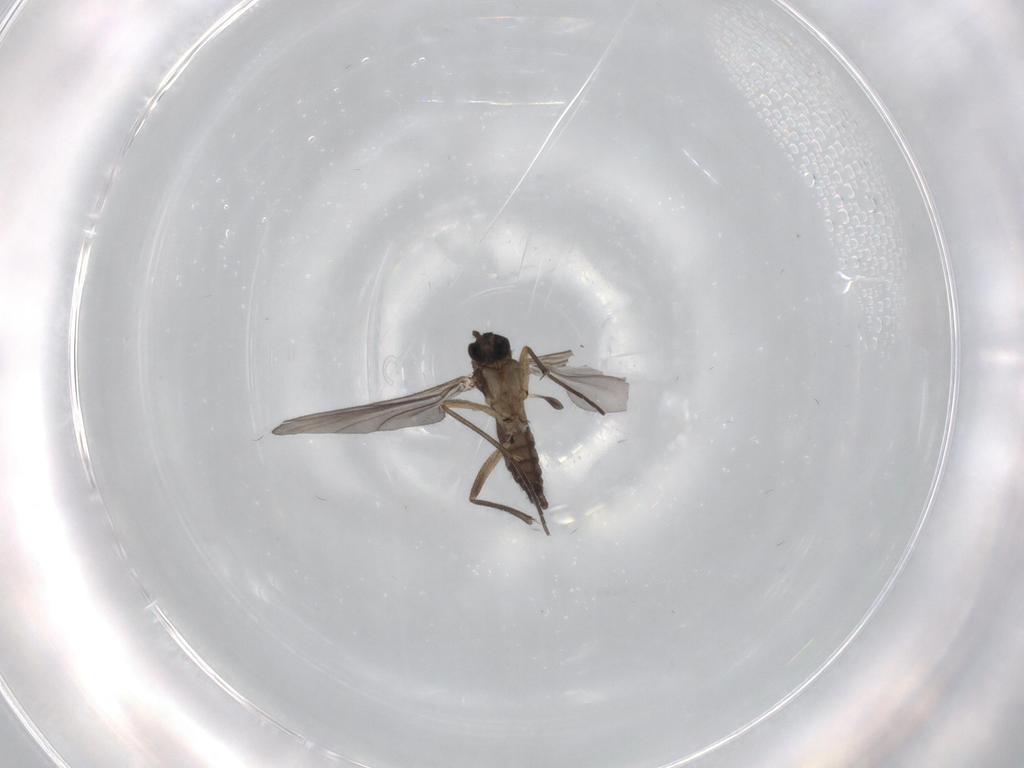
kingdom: Animalia
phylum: Arthropoda
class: Insecta
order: Diptera
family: Sciaridae
